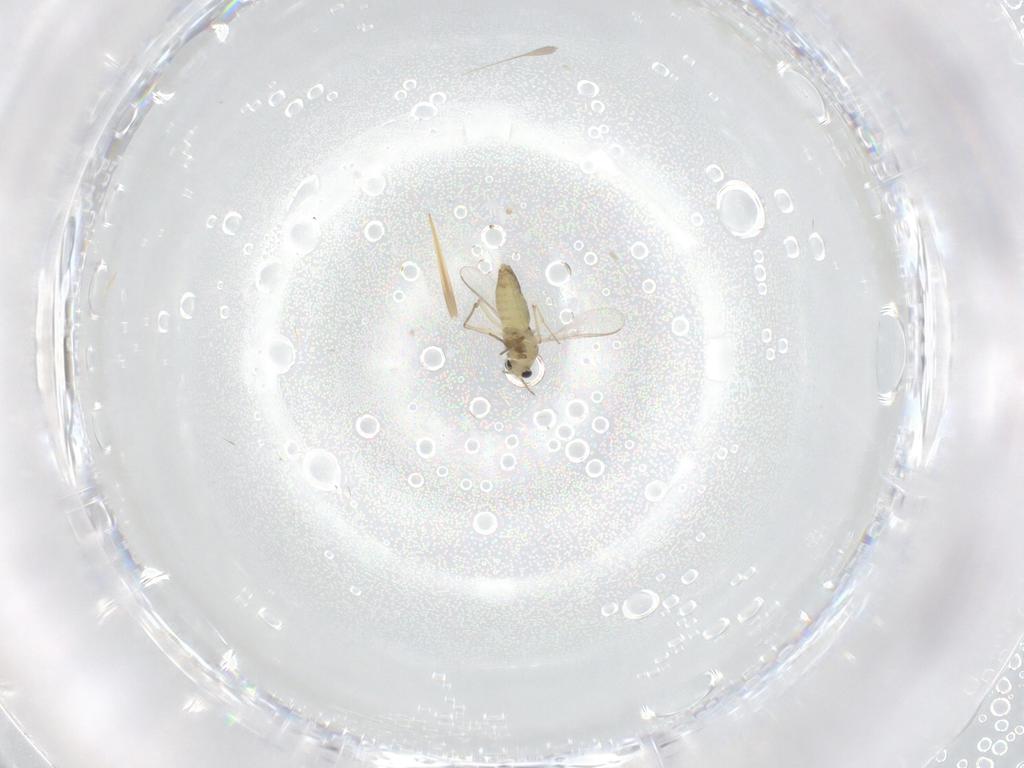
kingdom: Animalia
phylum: Arthropoda
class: Insecta
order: Diptera
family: Chironomidae
